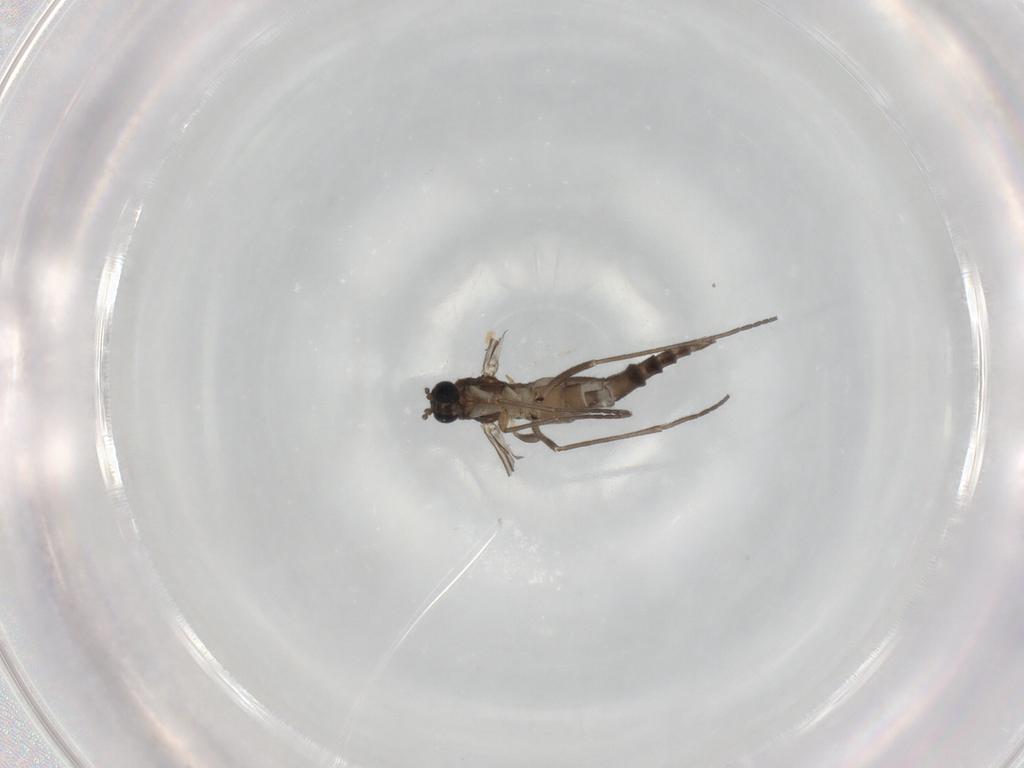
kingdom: Animalia
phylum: Arthropoda
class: Insecta
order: Diptera
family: Sciaridae
